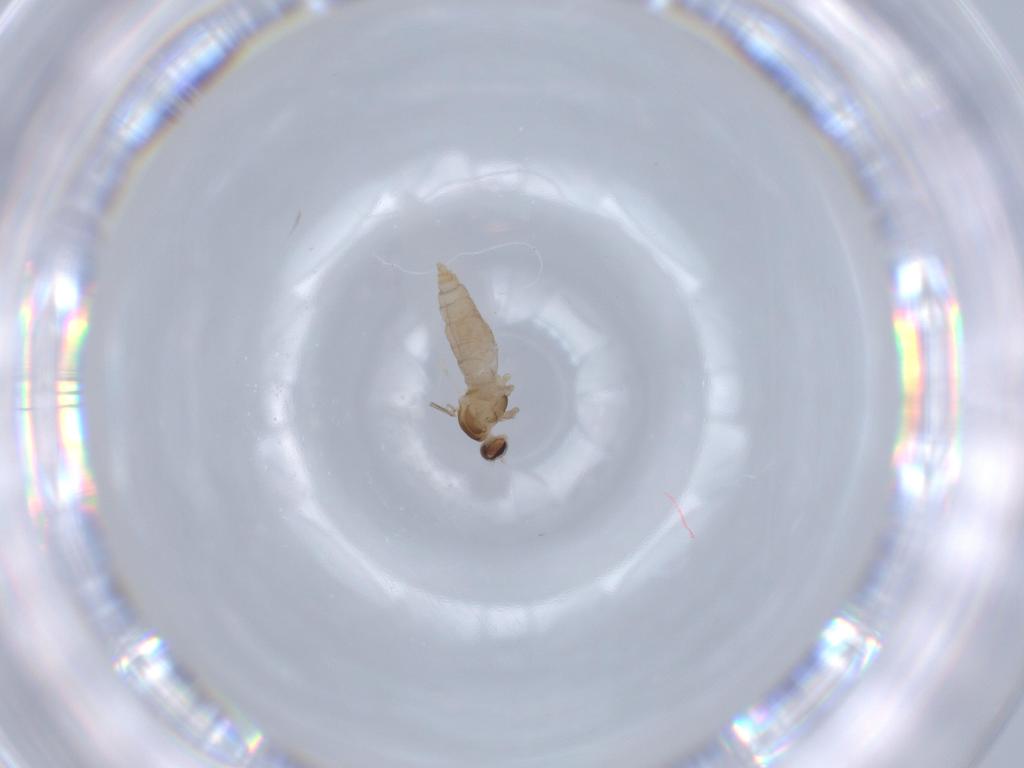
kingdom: Animalia
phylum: Arthropoda
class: Insecta
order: Diptera
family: Cecidomyiidae
